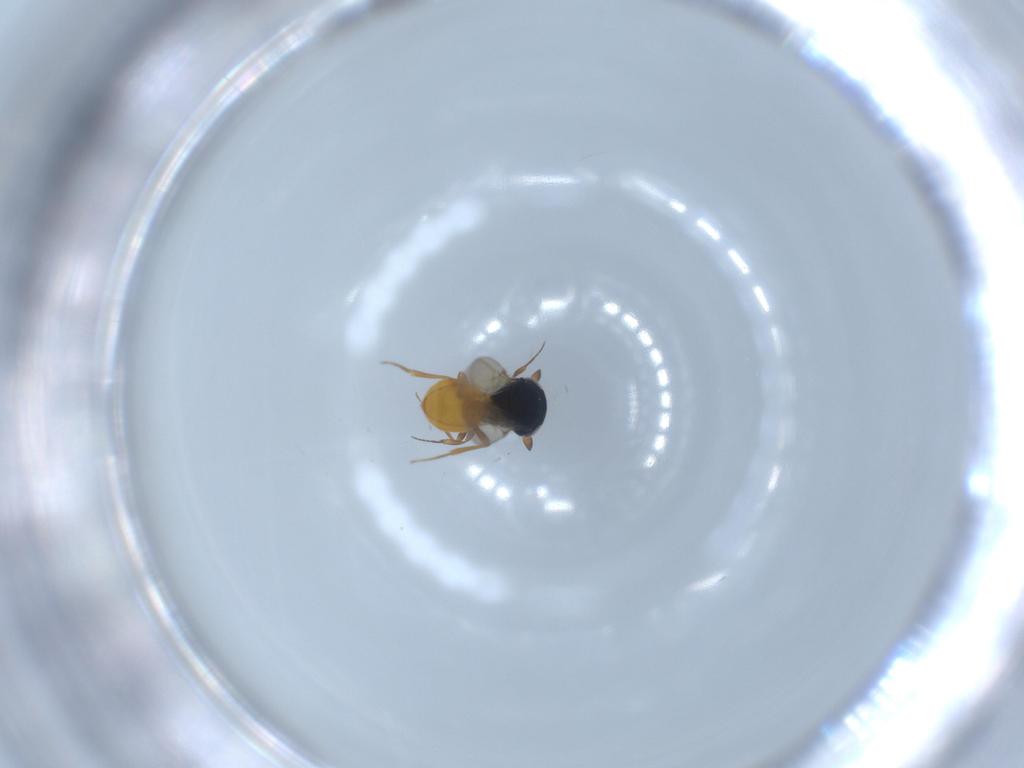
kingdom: Animalia
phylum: Arthropoda
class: Insecta
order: Hymenoptera
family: Scelionidae
